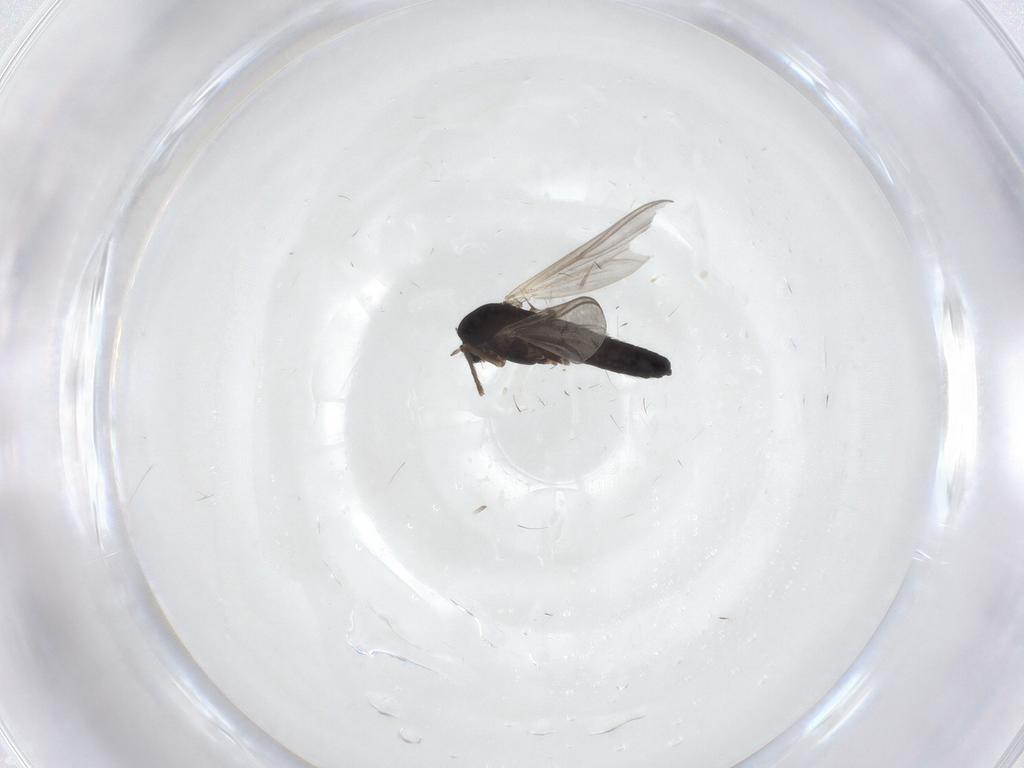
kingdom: Animalia
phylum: Arthropoda
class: Insecta
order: Diptera
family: Chironomidae
